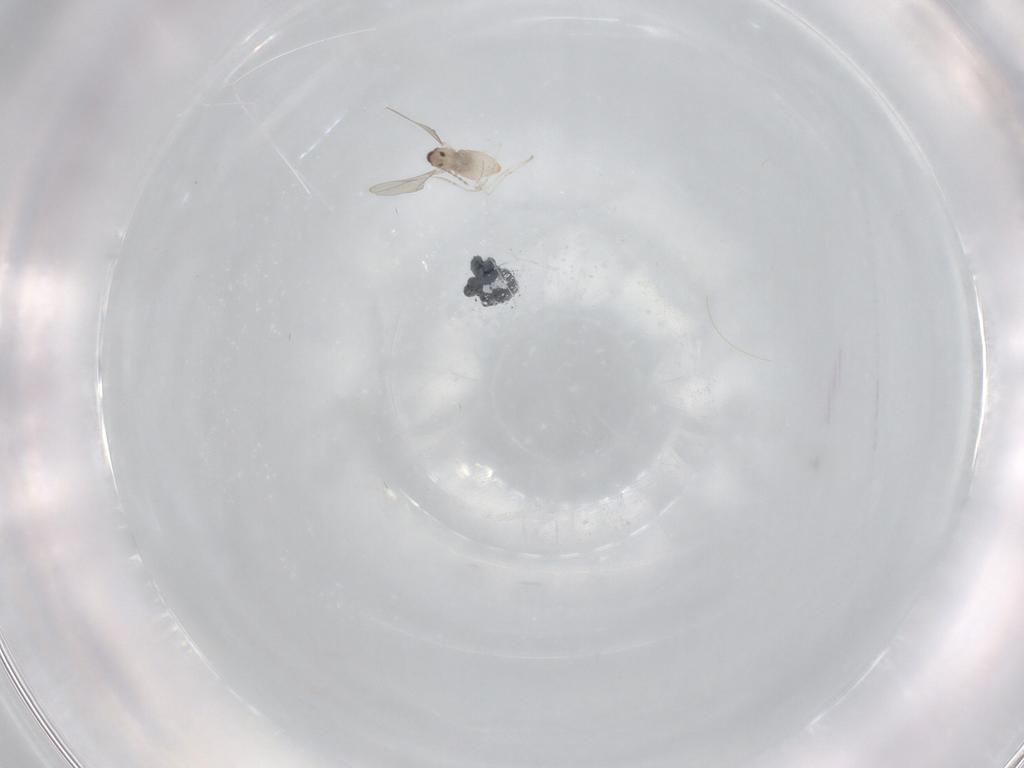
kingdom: Animalia
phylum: Arthropoda
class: Insecta
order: Diptera
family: Cecidomyiidae
